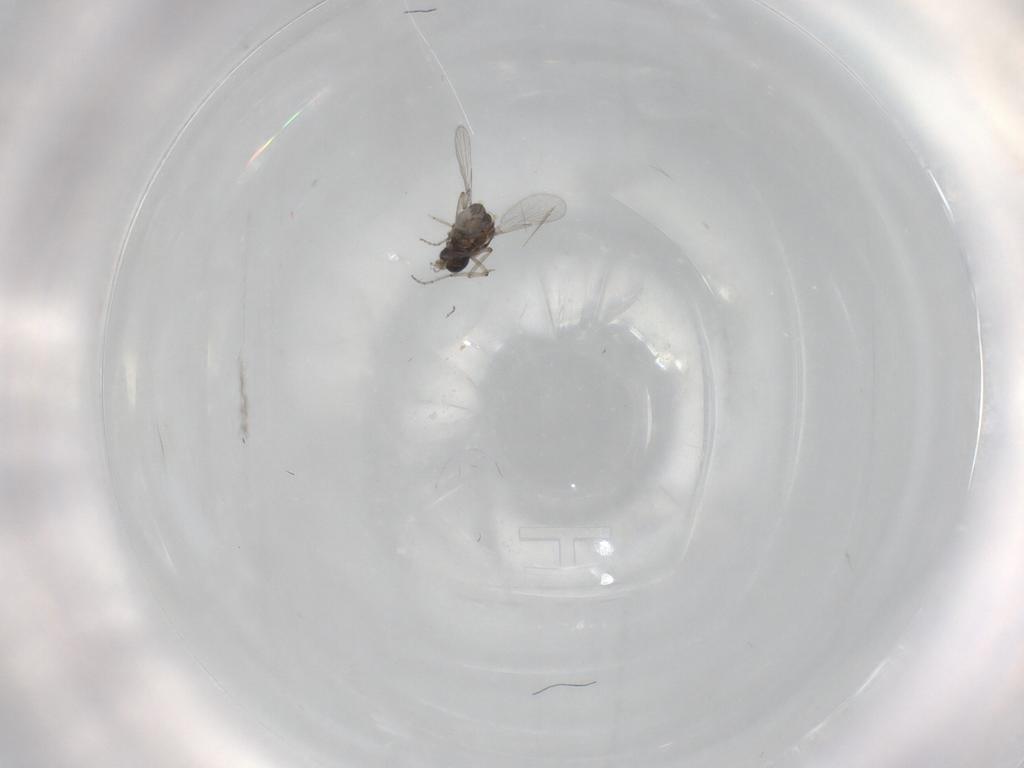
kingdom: Animalia
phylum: Arthropoda
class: Insecta
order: Diptera
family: Ceratopogonidae
